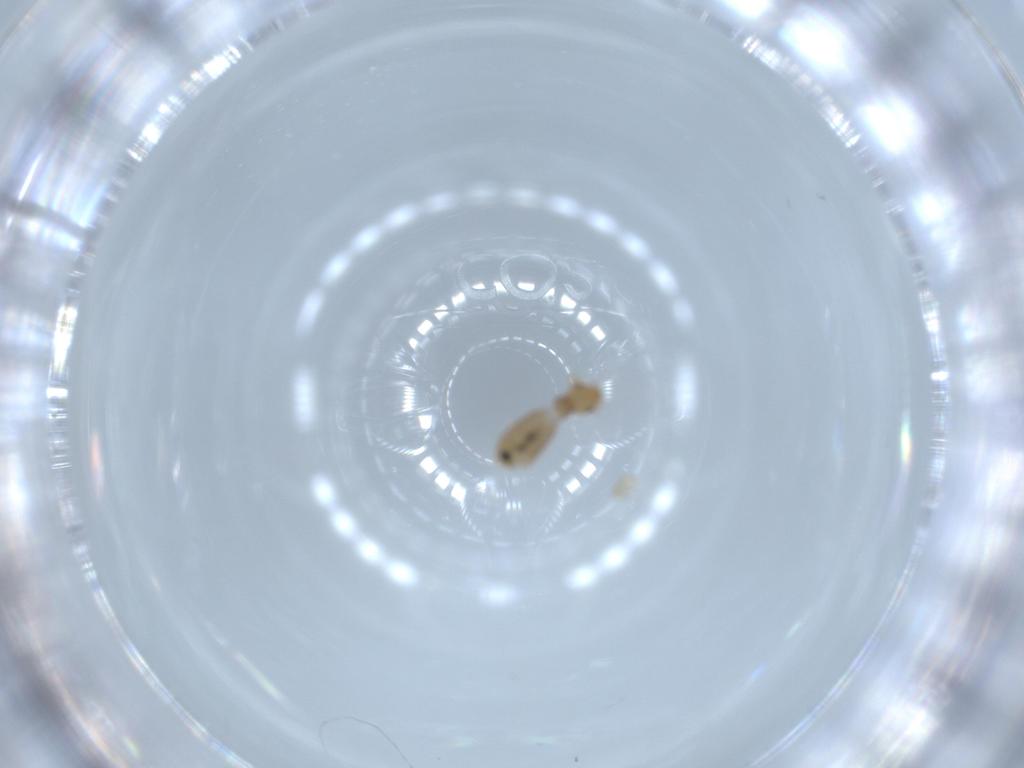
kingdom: Animalia
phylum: Arthropoda
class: Insecta
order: Psocodea
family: Liposcelididae
